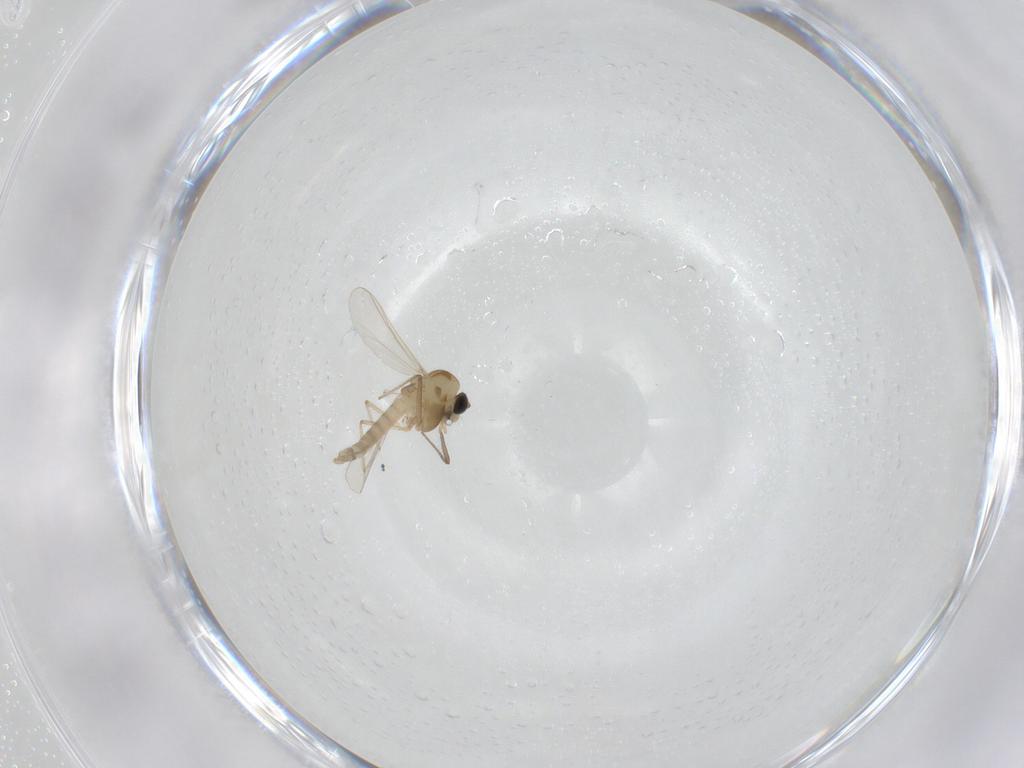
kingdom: Animalia
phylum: Arthropoda
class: Insecta
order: Diptera
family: Sciaridae
